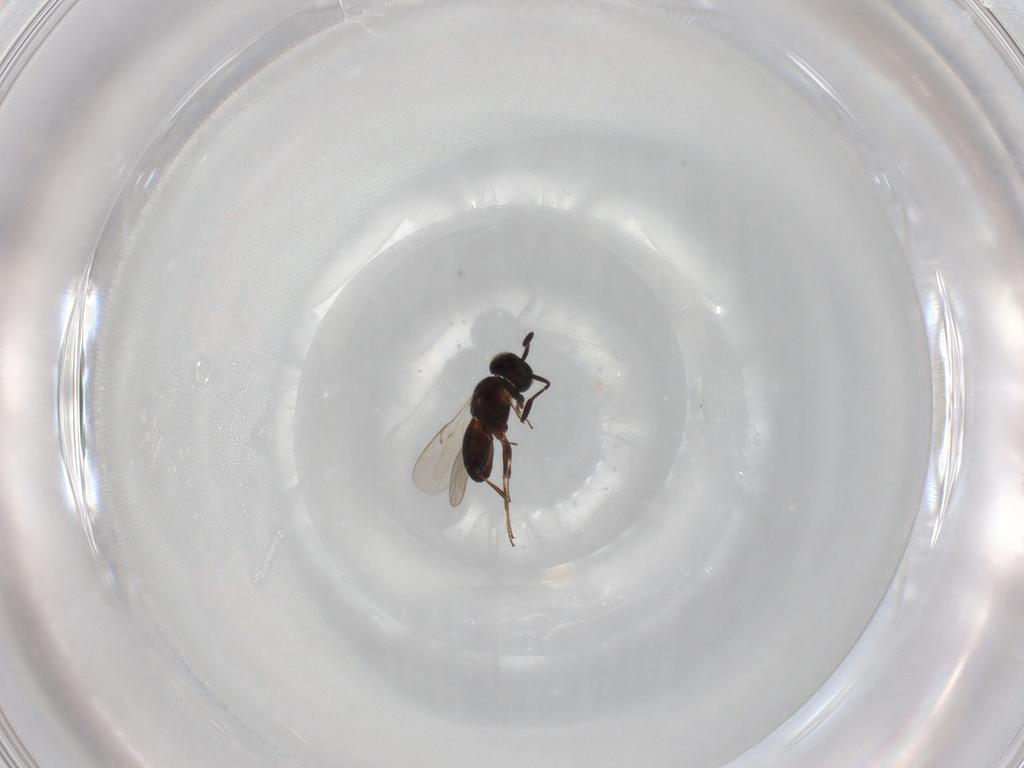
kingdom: Animalia
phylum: Arthropoda
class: Insecta
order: Hymenoptera
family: Scelionidae
